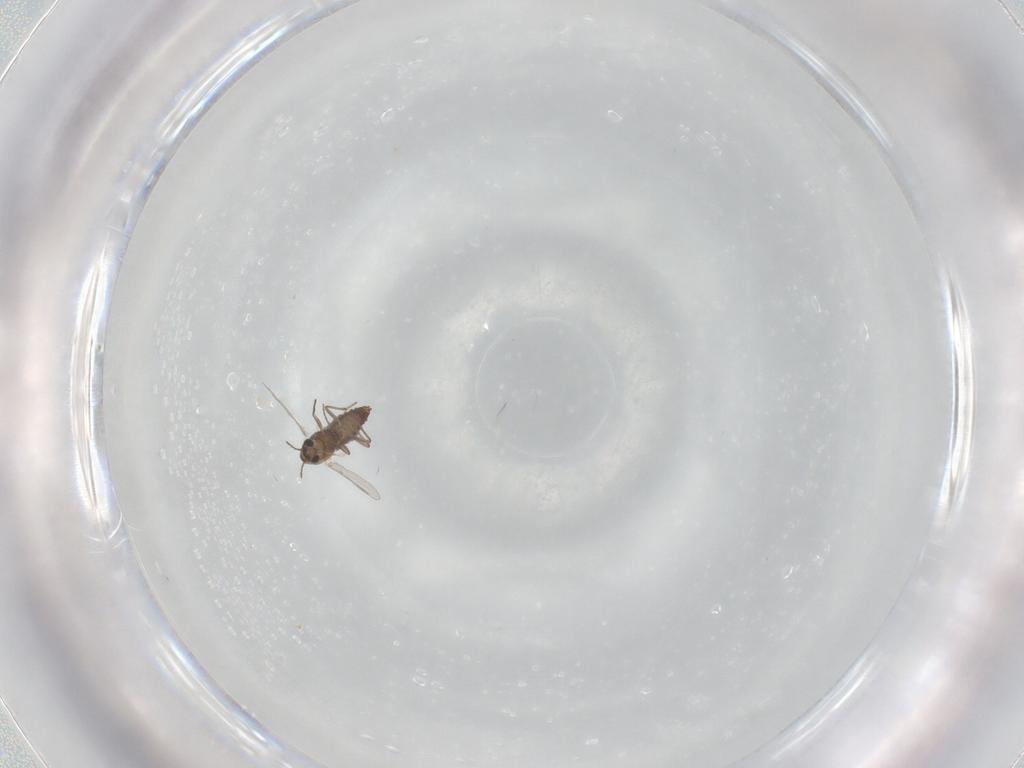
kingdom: Animalia
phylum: Arthropoda
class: Insecta
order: Diptera
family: Chironomidae
